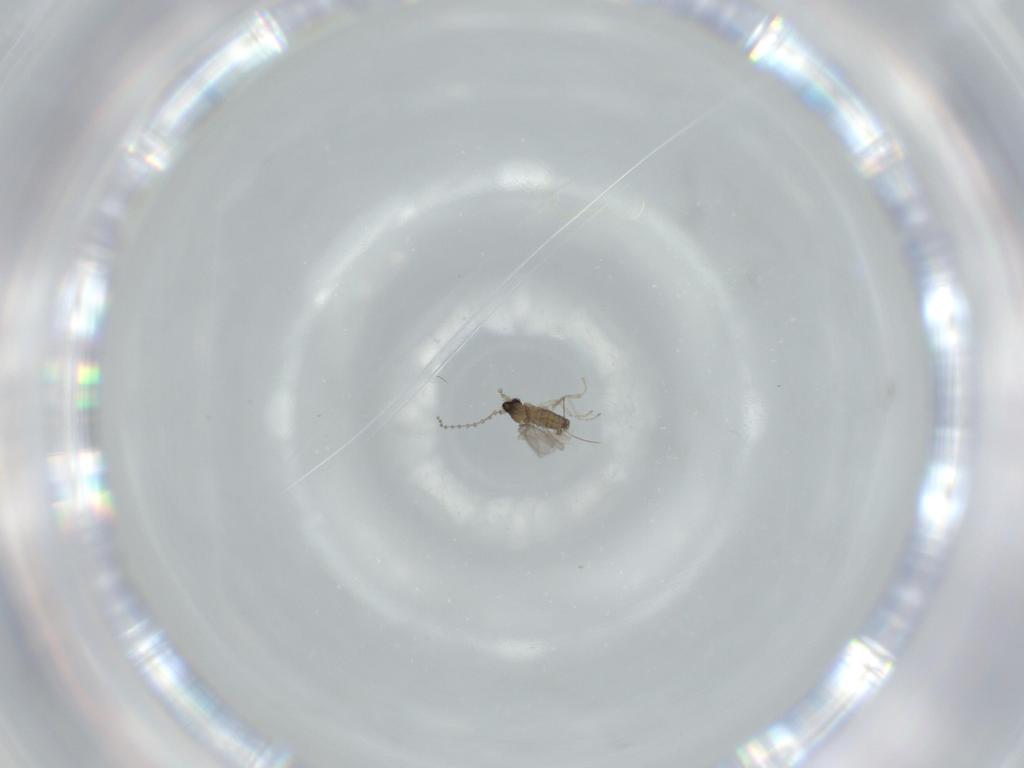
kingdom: Animalia
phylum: Arthropoda
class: Insecta
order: Diptera
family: Cecidomyiidae
